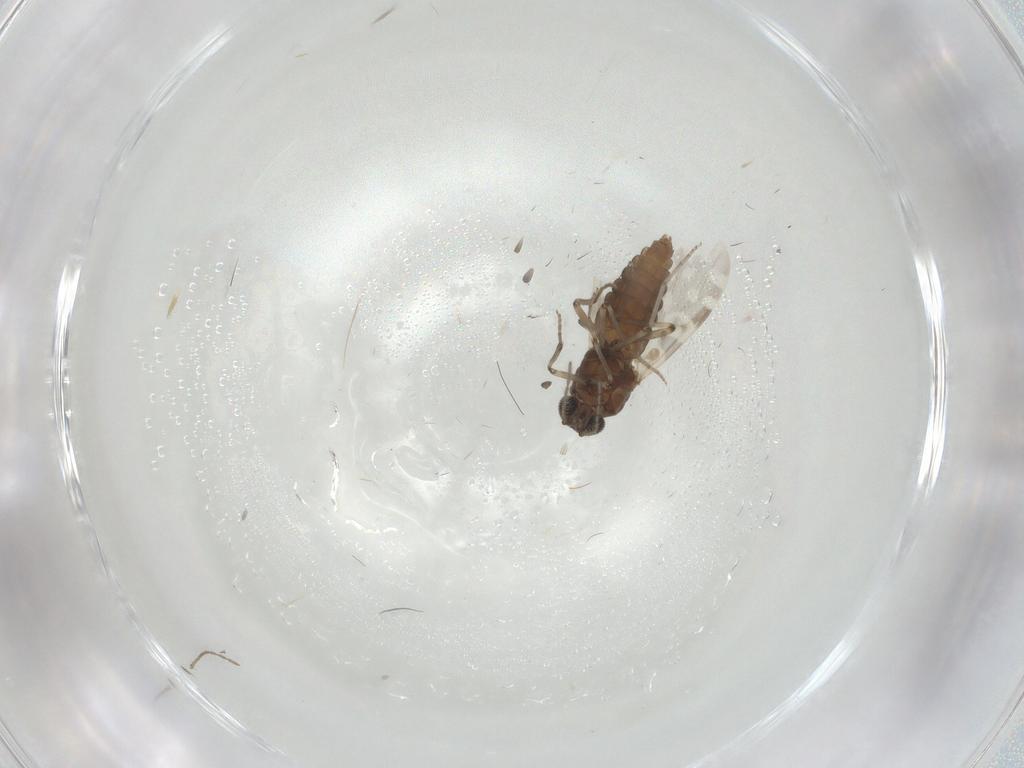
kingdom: Animalia
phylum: Arthropoda
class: Insecta
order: Diptera
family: Limoniidae
